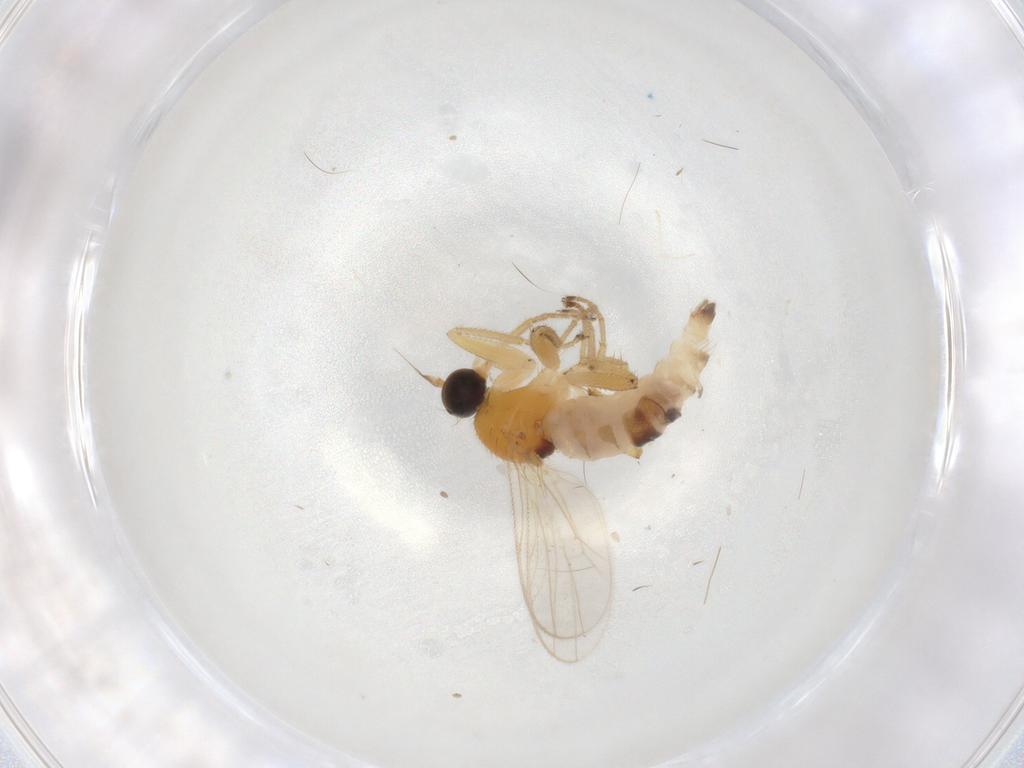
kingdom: Animalia
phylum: Arthropoda
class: Insecta
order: Diptera
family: Hybotidae
